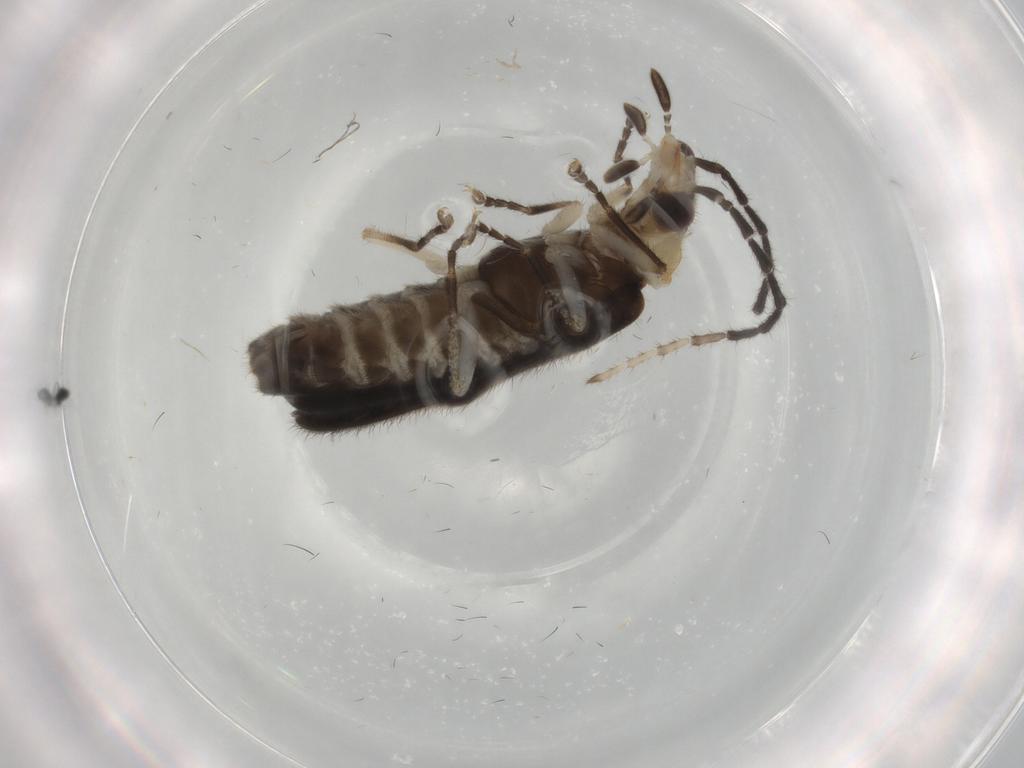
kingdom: Animalia
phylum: Arthropoda
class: Insecta
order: Coleoptera
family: Cantharidae
